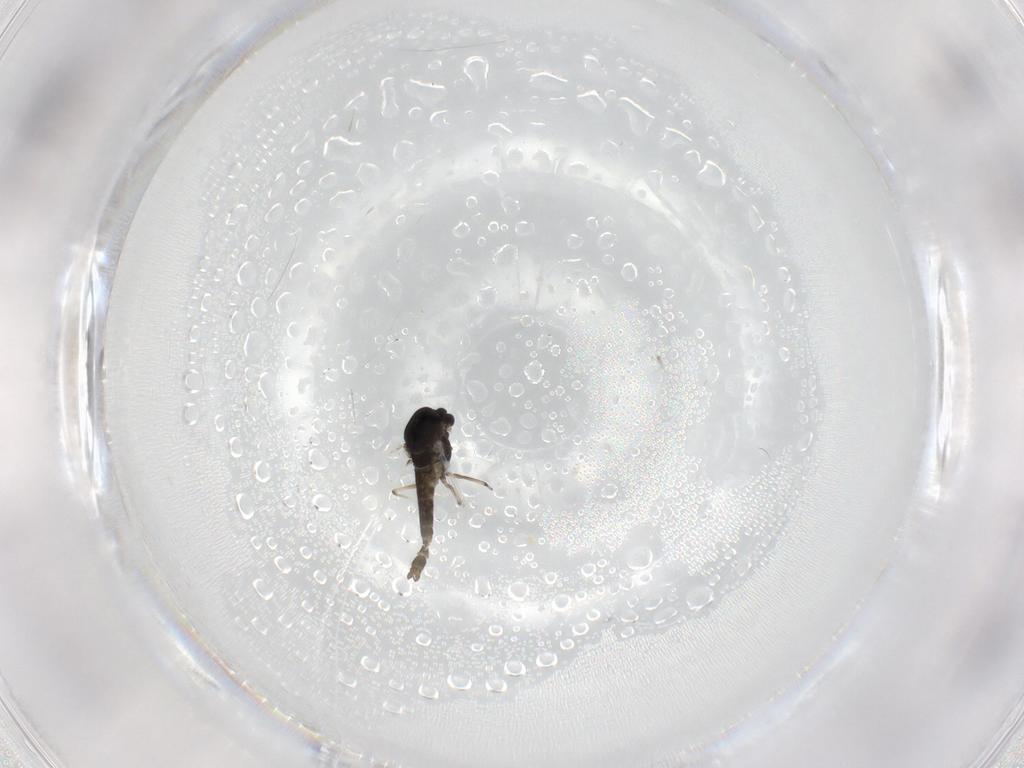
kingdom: Animalia
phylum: Arthropoda
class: Insecta
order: Diptera
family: Chironomidae
